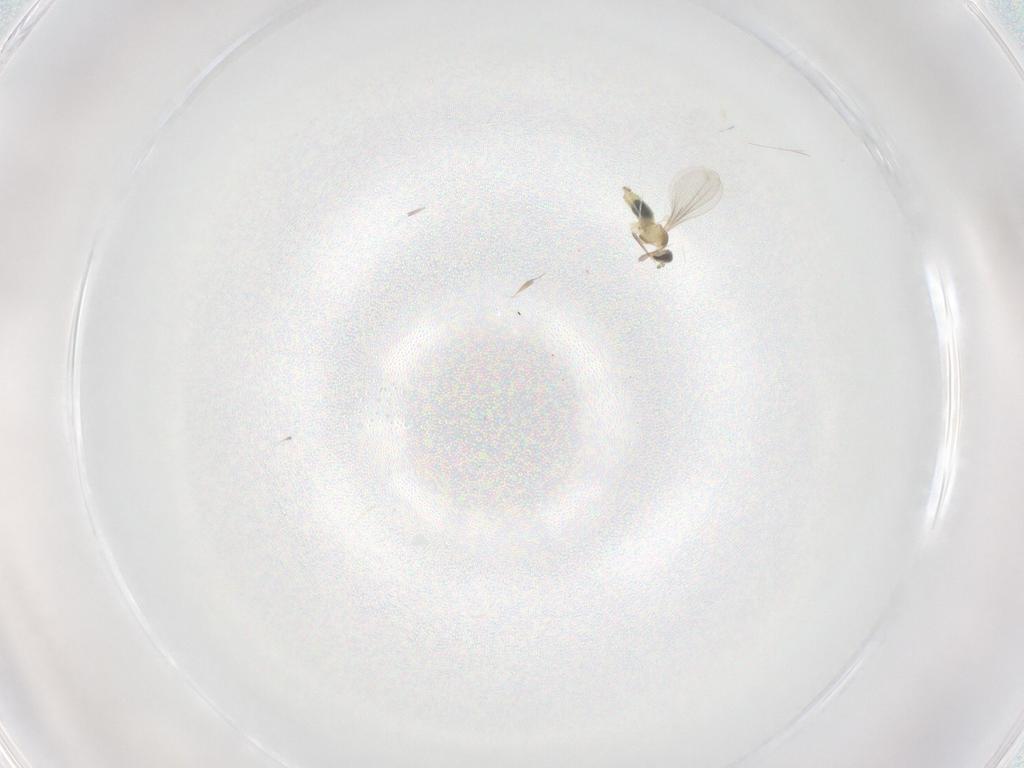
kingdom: Animalia
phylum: Arthropoda
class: Insecta
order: Diptera
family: Cecidomyiidae
